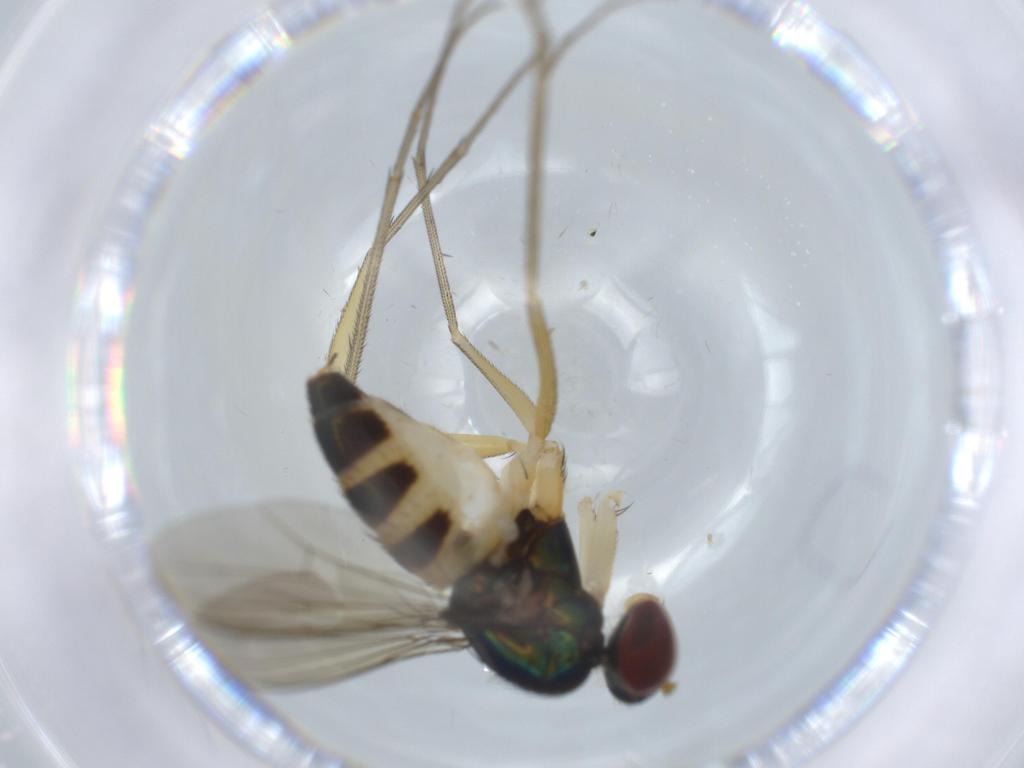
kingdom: Animalia
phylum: Arthropoda
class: Insecta
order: Diptera
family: Dolichopodidae
